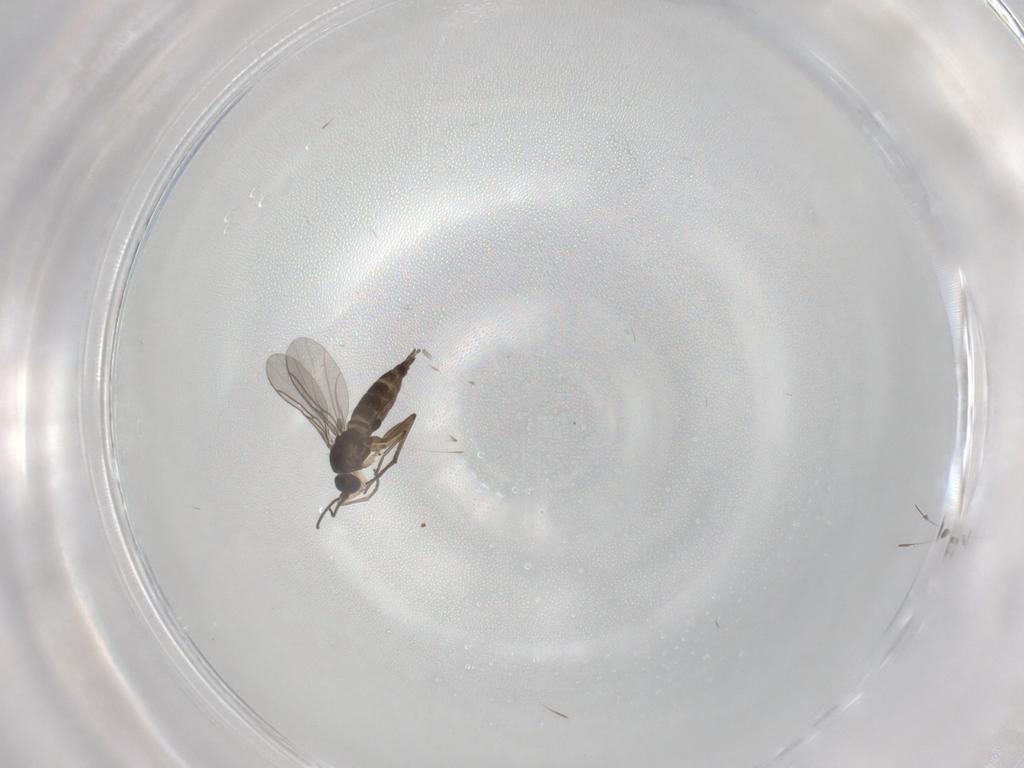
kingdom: Animalia
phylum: Arthropoda
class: Insecta
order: Diptera
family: Sciaridae
